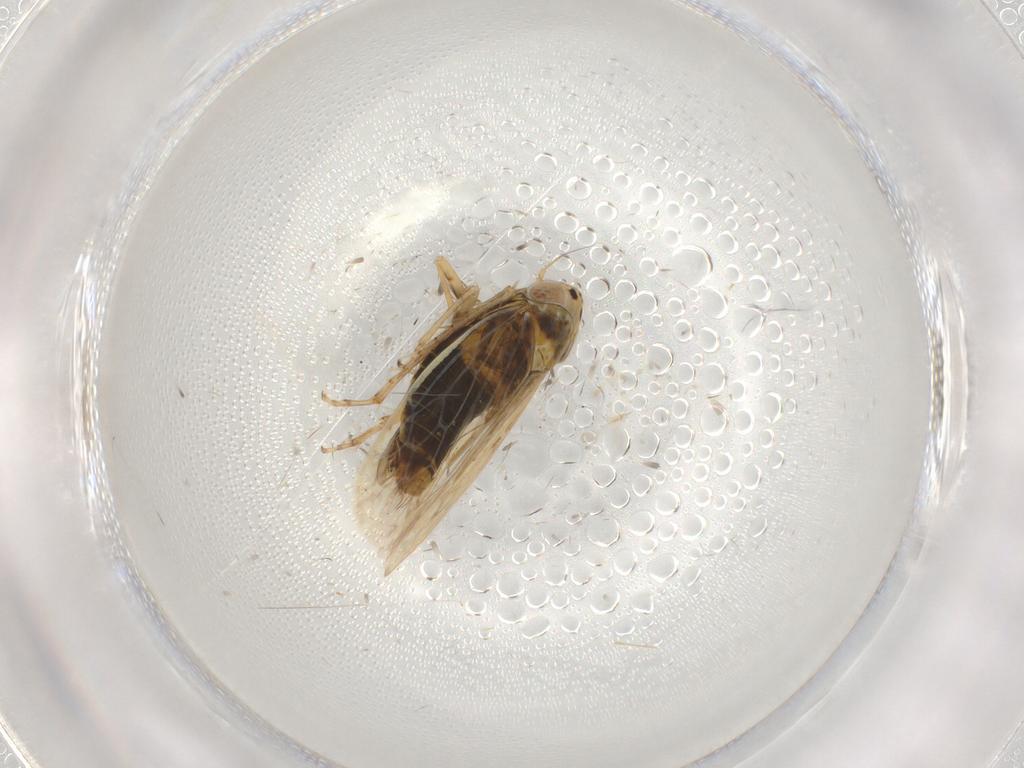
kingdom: Animalia
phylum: Arthropoda
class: Insecta
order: Hemiptera
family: Cicadellidae
